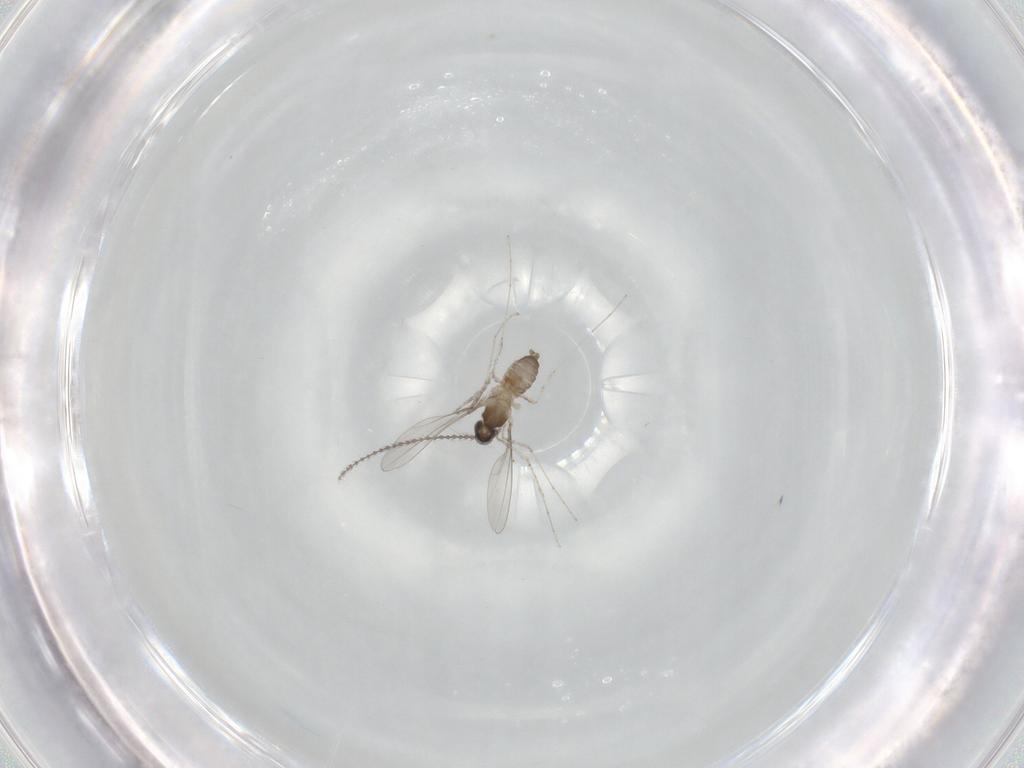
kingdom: Animalia
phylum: Arthropoda
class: Insecta
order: Diptera
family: Cecidomyiidae
